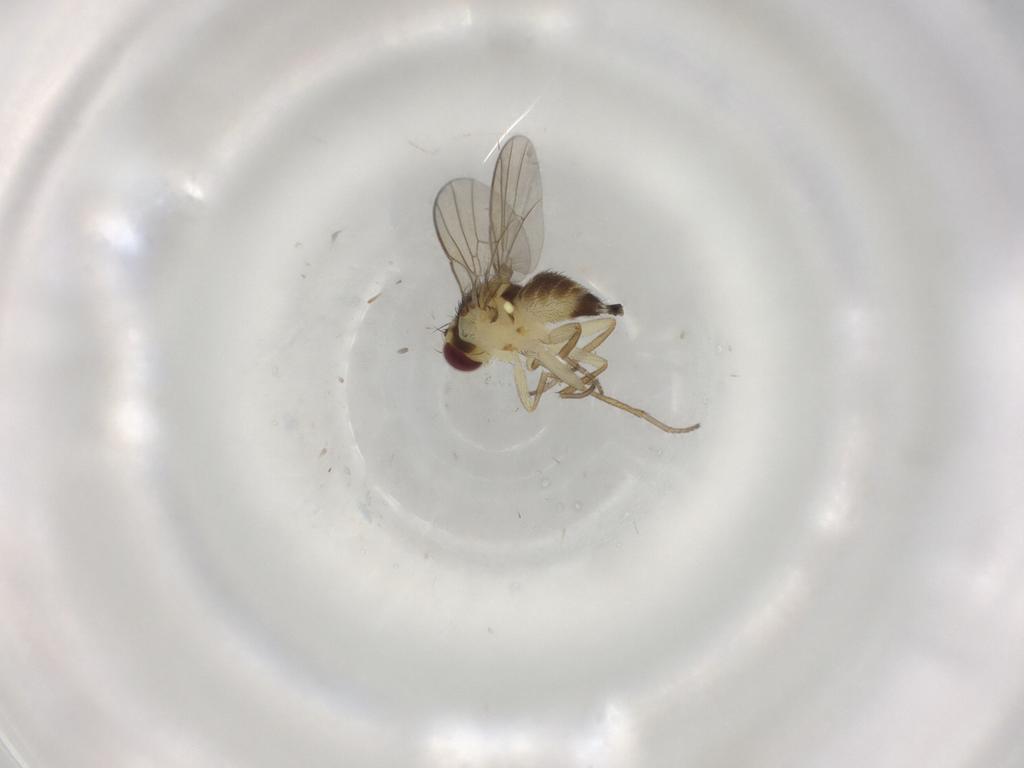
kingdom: Animalia
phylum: Arthropoda
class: Insecta
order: Diptera
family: Cecidomyiidae
